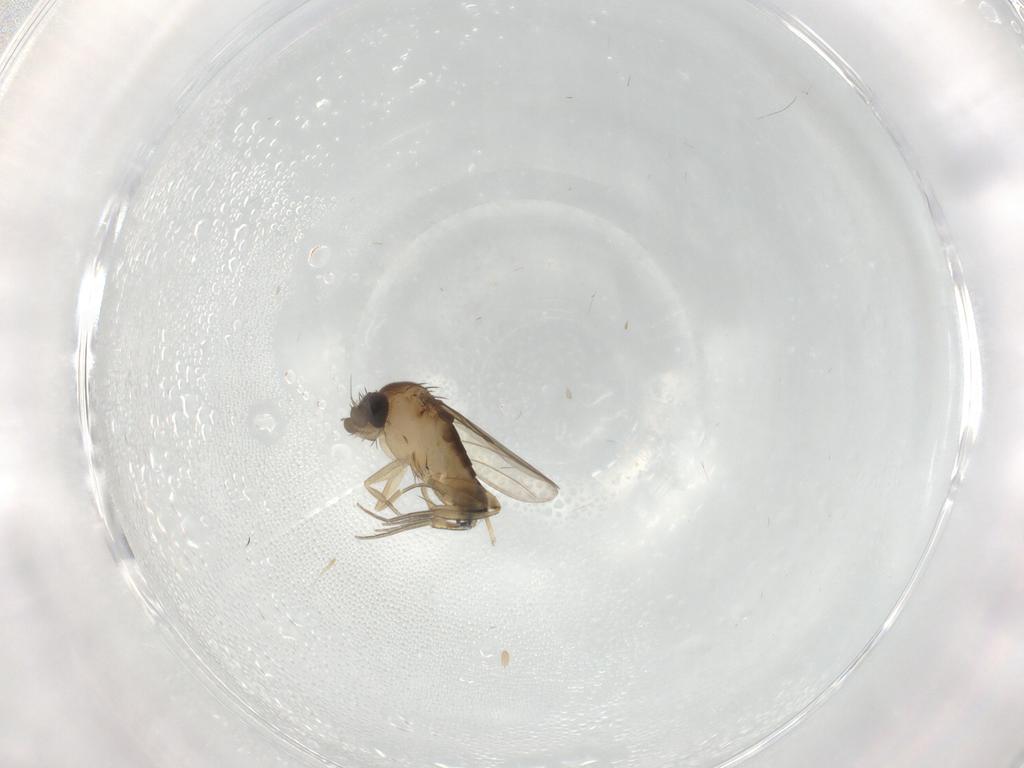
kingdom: Animalia
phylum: Arthropoda
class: Insecta
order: Diptera
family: Phoridae
